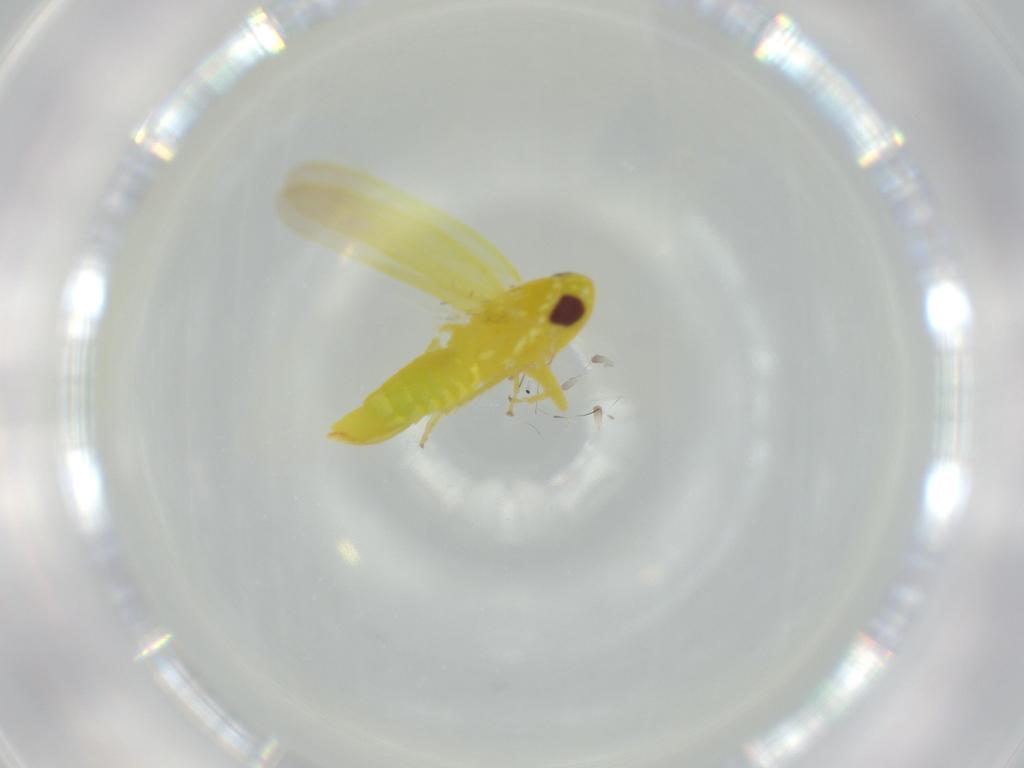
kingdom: Animalia
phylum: Arthropoda
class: Insecta
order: Hemiptera
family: Cicadellidae
